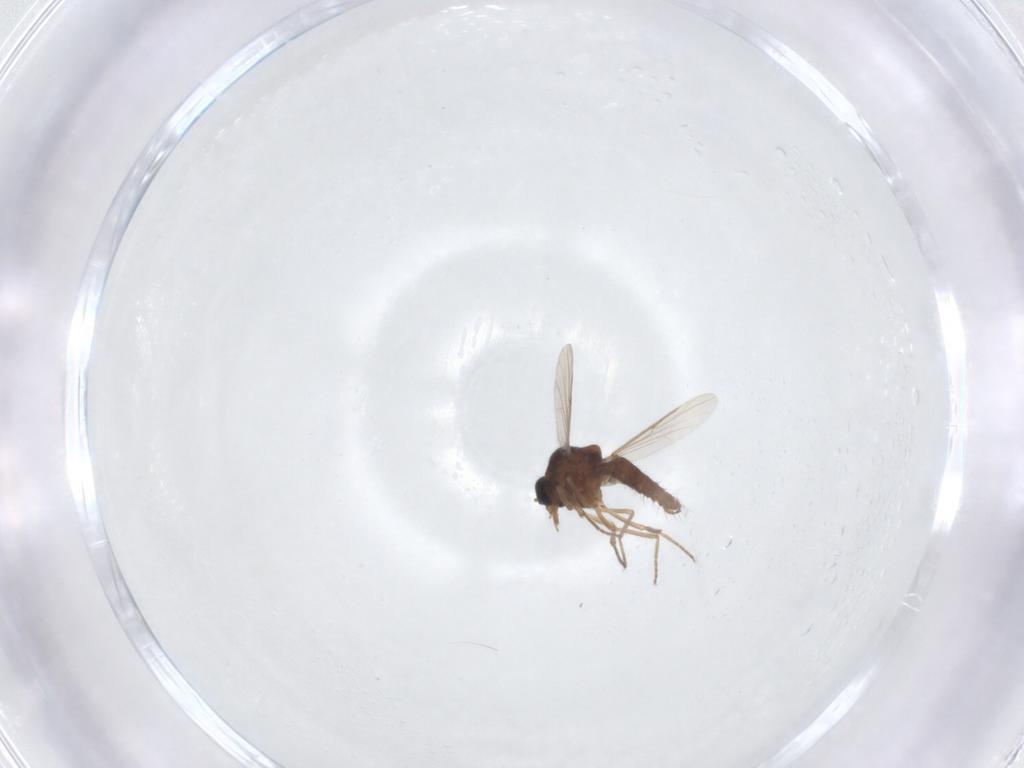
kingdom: Animalia
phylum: Arthropoda
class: Insecta
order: Diptera
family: Ceratopogonidae
